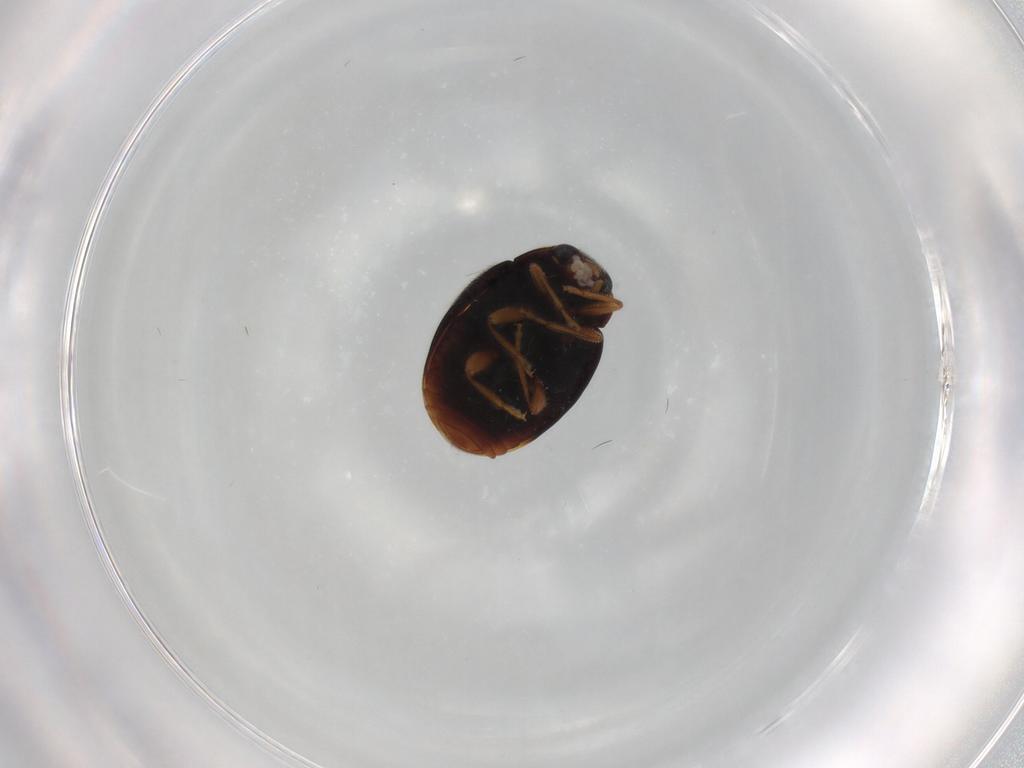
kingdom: Animalia
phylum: Arthropoda
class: Insecta
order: Coleoptera
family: Coccinellidae
